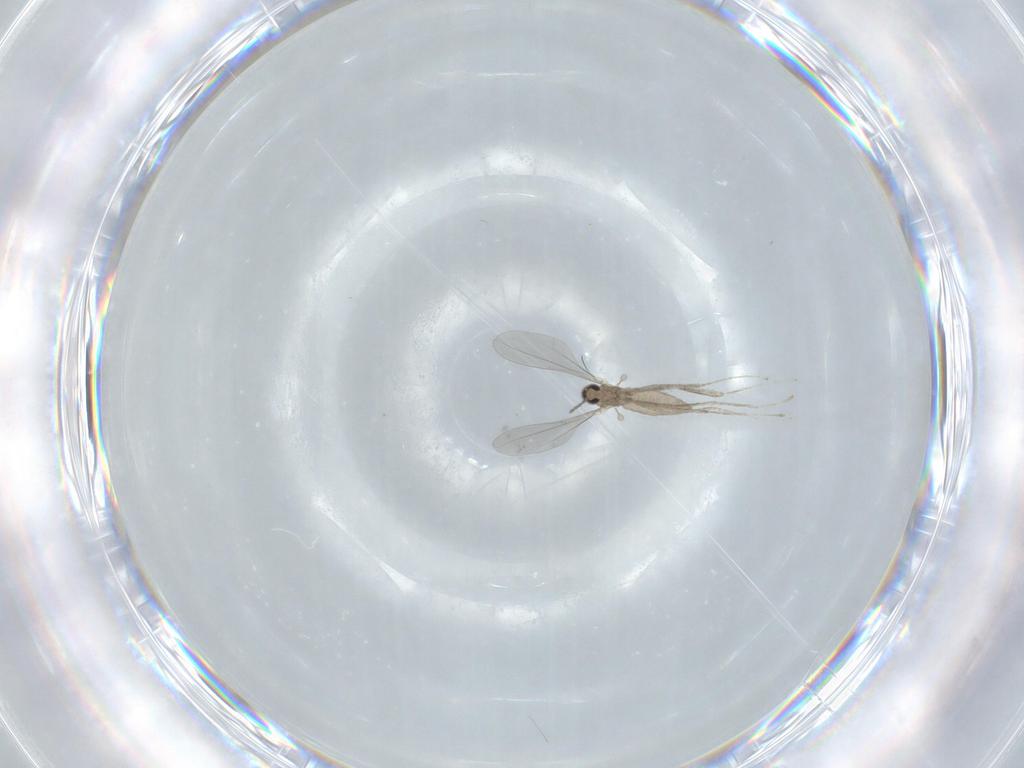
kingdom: Animalia
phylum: Arthropoda
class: Insecta
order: Diptera
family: Cecidomyiidae
